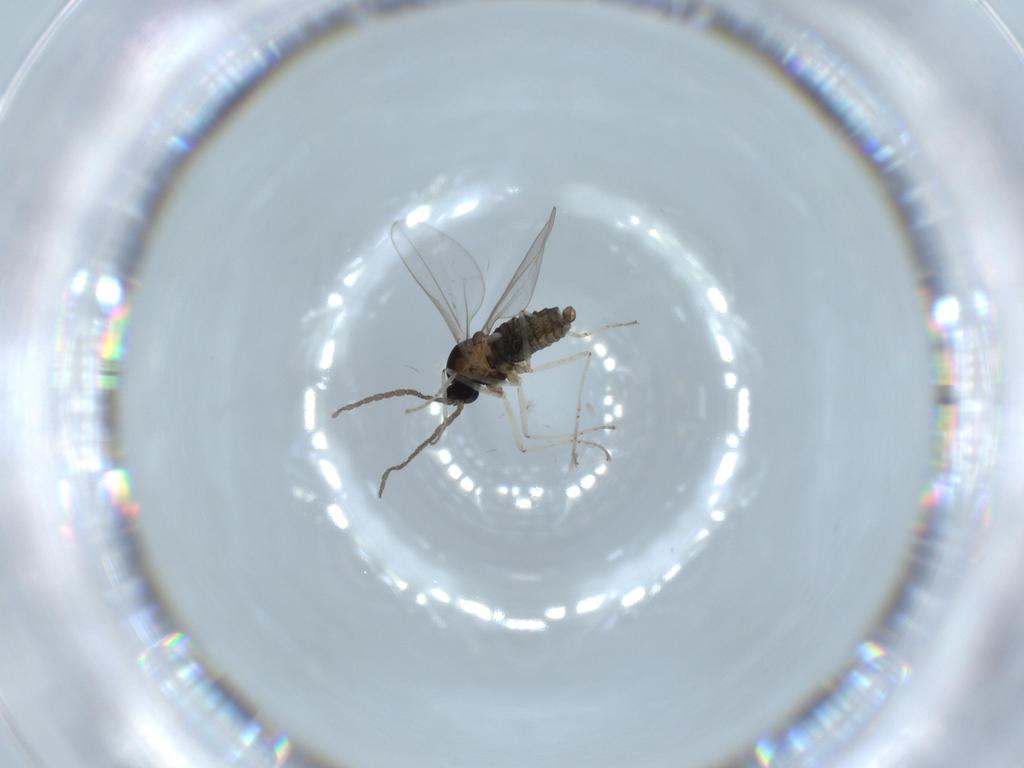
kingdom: Animalia
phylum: Arthropoda
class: Insecta
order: Diptera
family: Cecidomyiidae
